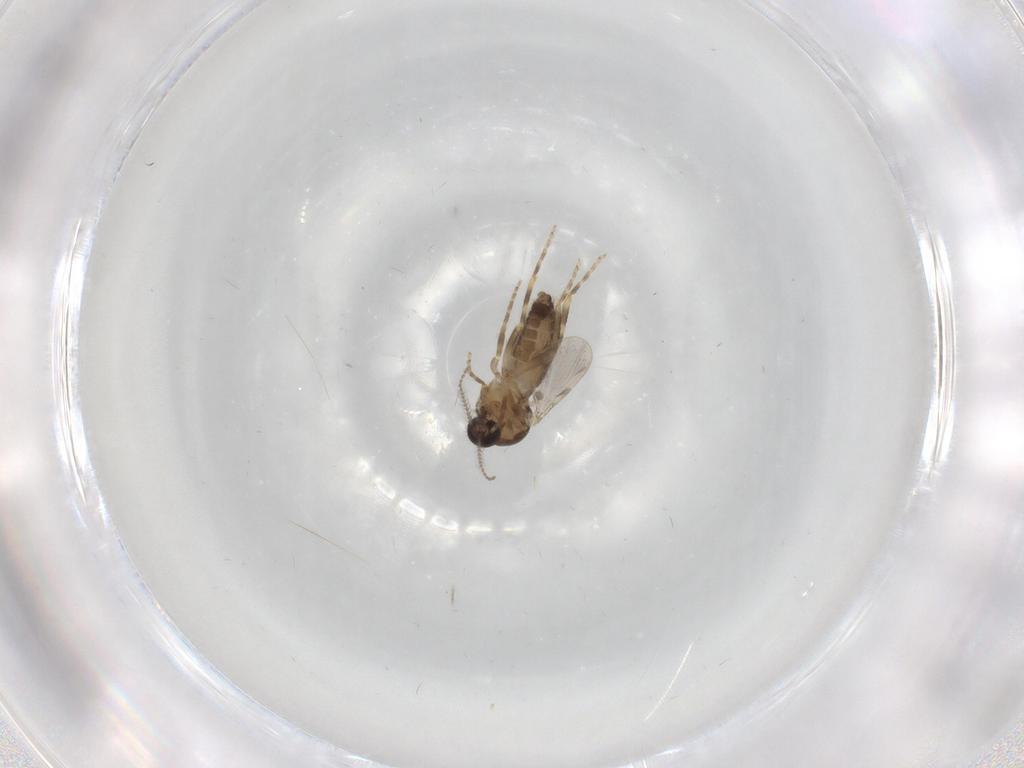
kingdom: Animalia
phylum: Arthropoda
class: Insecta
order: Diptera
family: Ceratopogonidae
